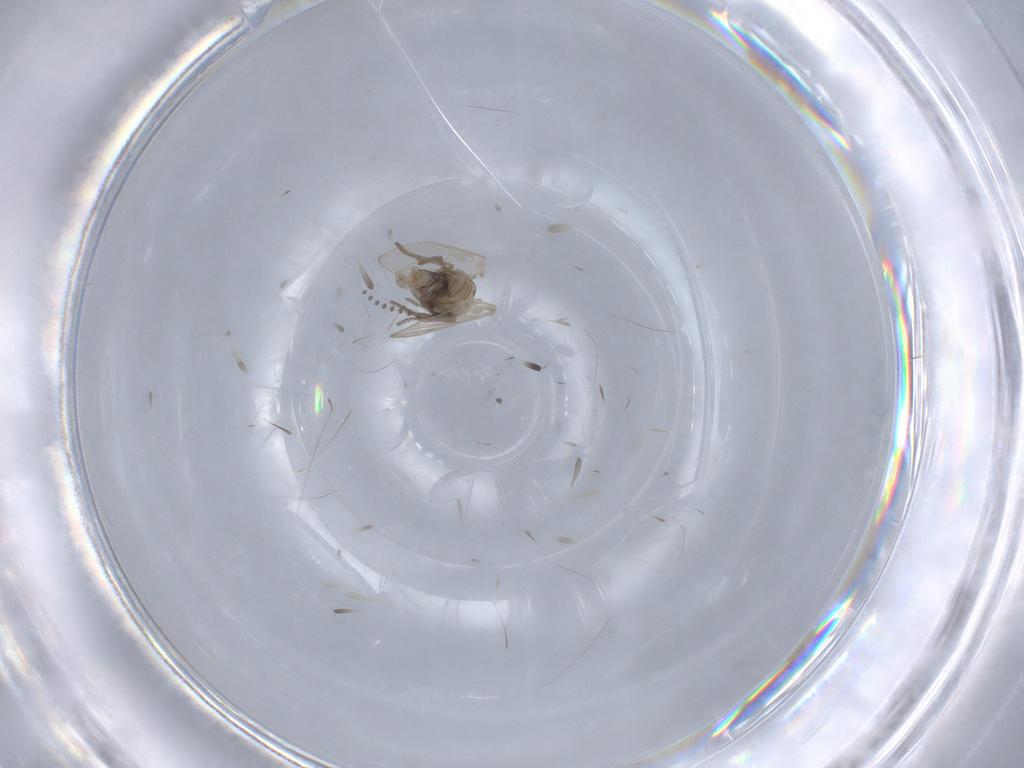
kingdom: Animalia
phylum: Arthropoda
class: Insecta
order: Diptera
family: Psychodidae
